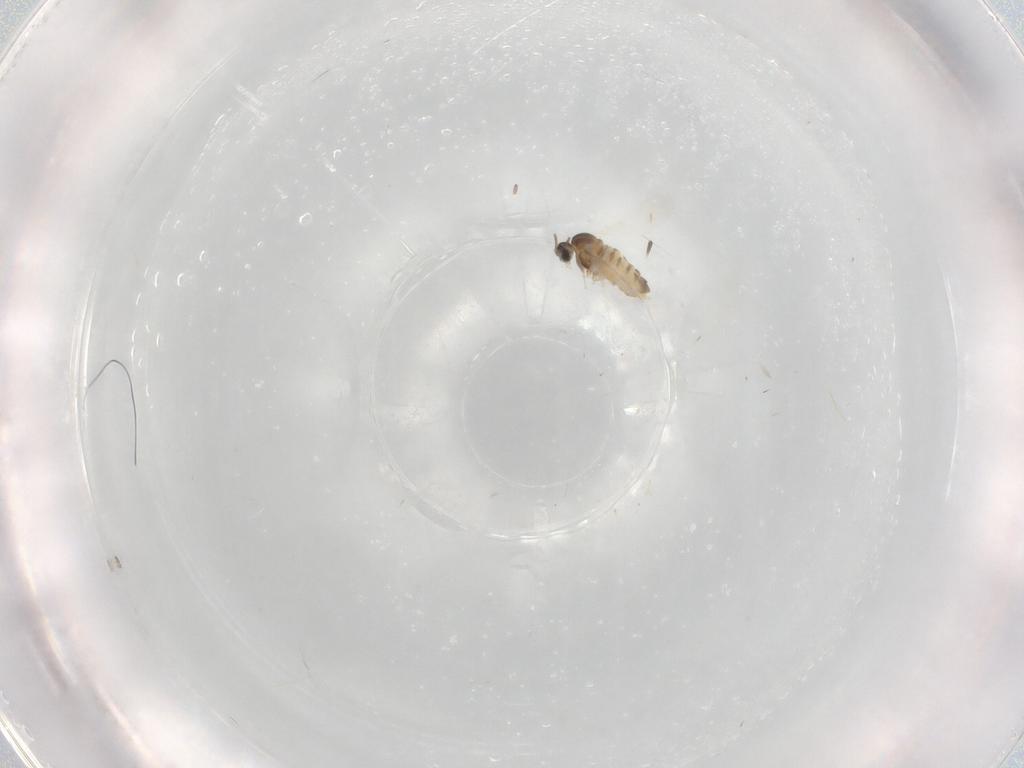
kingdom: Animalia
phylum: Arthropoda
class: Insecta
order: Diptera
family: Cecidomyiidae
